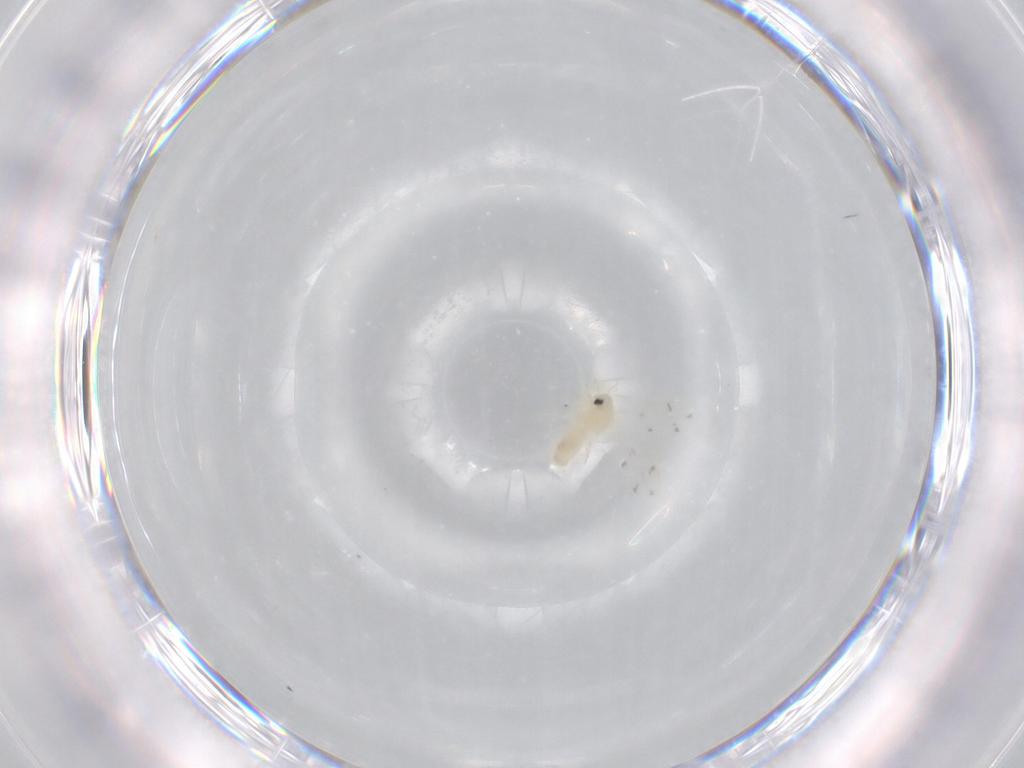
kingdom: Animalia
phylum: Arthropoda
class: Insecta
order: Hemiptera
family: Aleyrodidae
